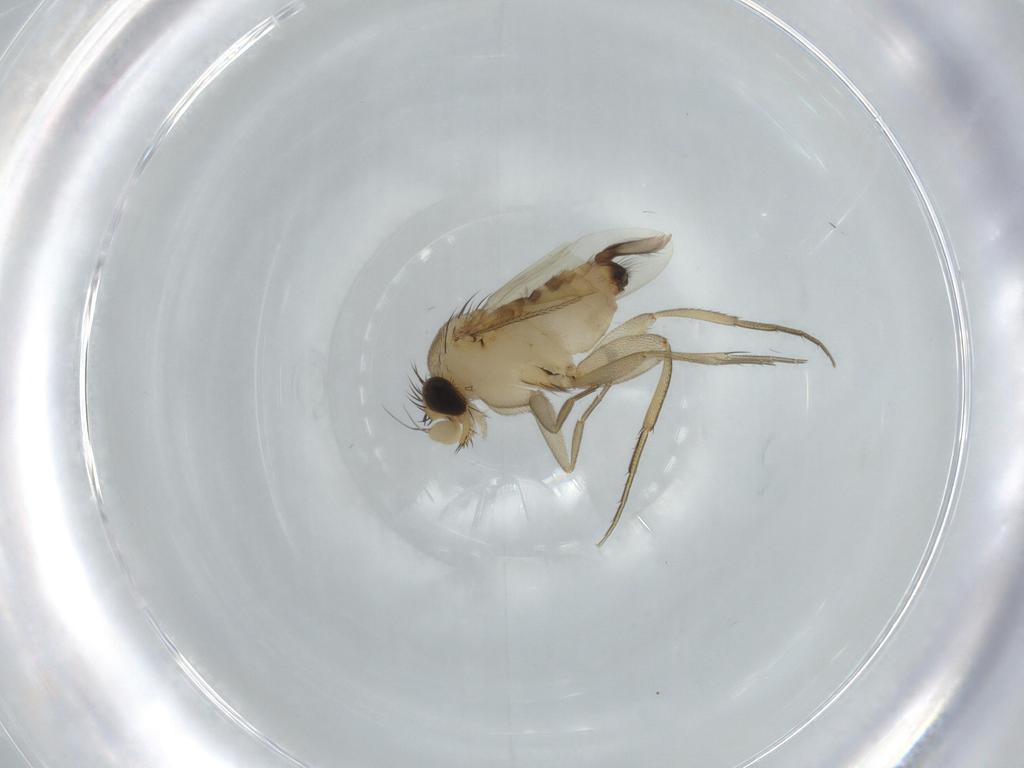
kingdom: Animalia
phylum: Arthropoda
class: Insecta
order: Diptera
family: Phoridae
